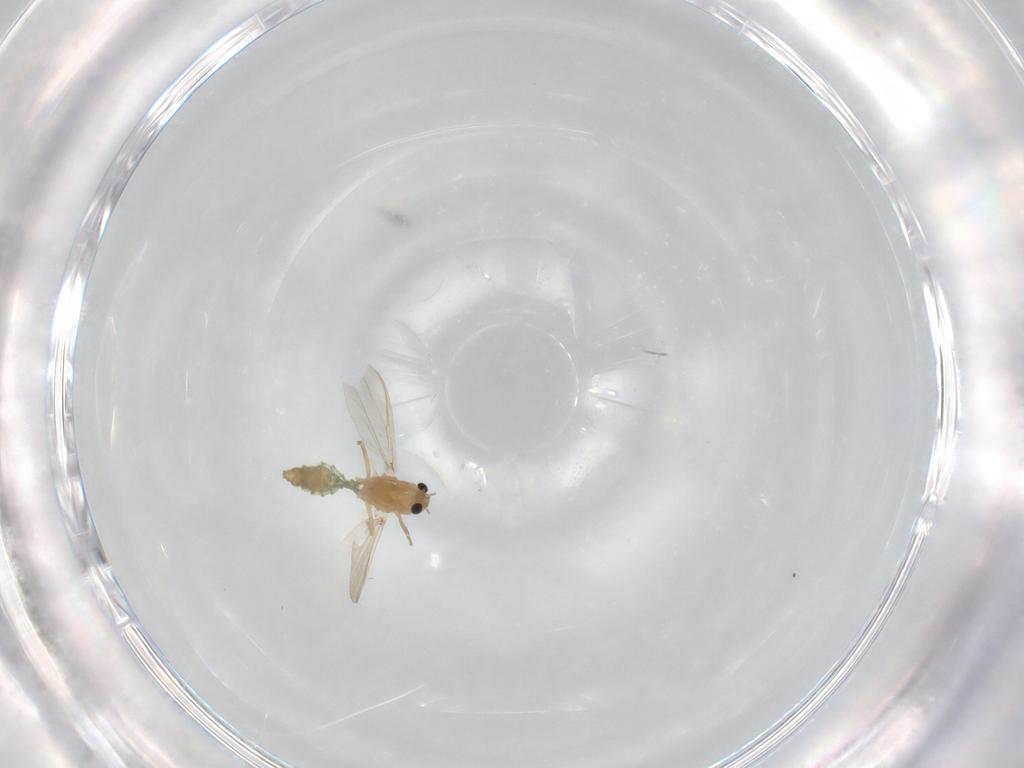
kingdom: Animalia
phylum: Arthropoda
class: Insecta
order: Diptera
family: Chironomidae
